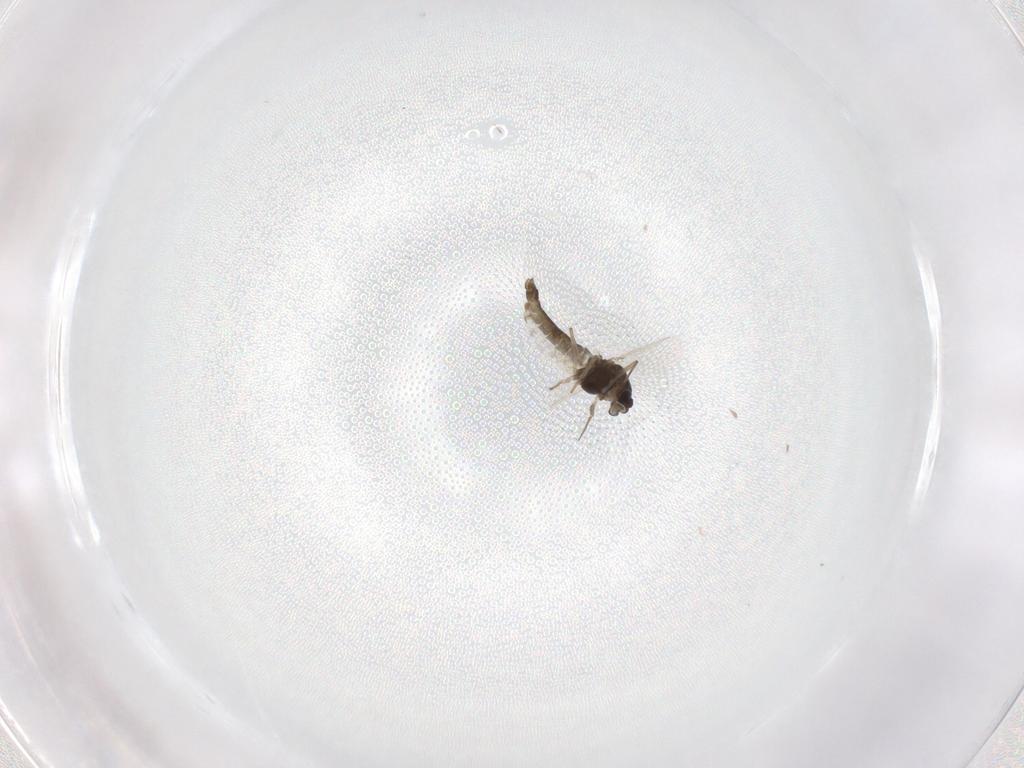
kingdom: Animalia
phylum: Arthropoda
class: Insecta
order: Diptera
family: Chironomidae
